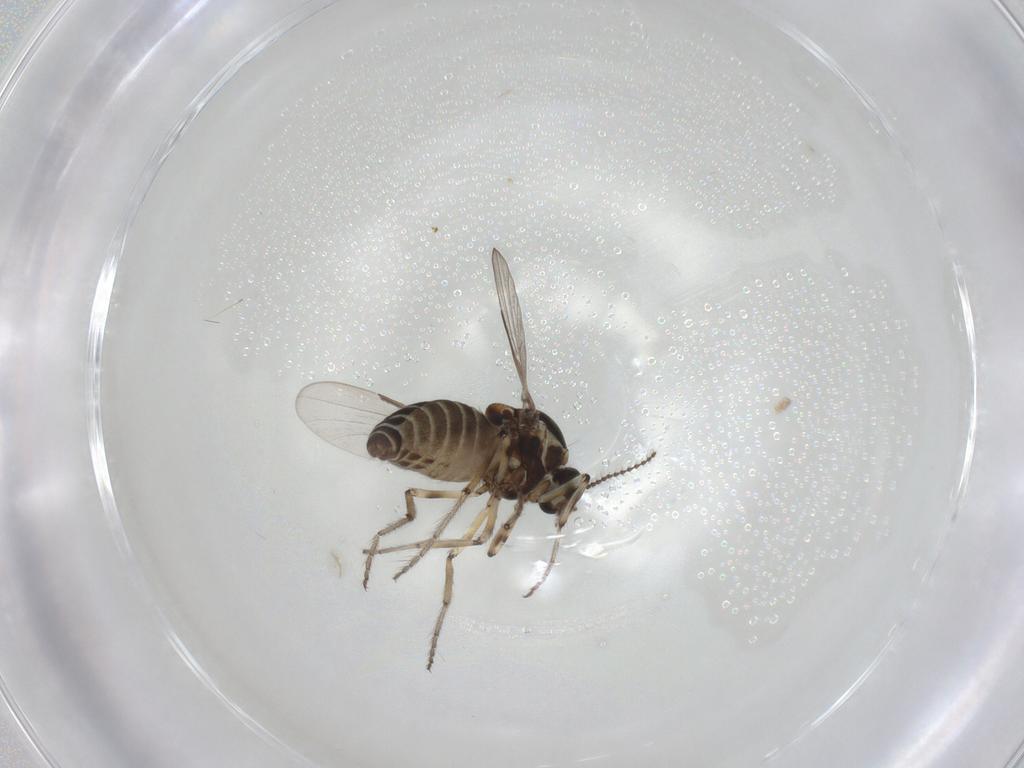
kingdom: Animalia
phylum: Arthropoda
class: Insecta
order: Diptera
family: Ceratopogonidae
